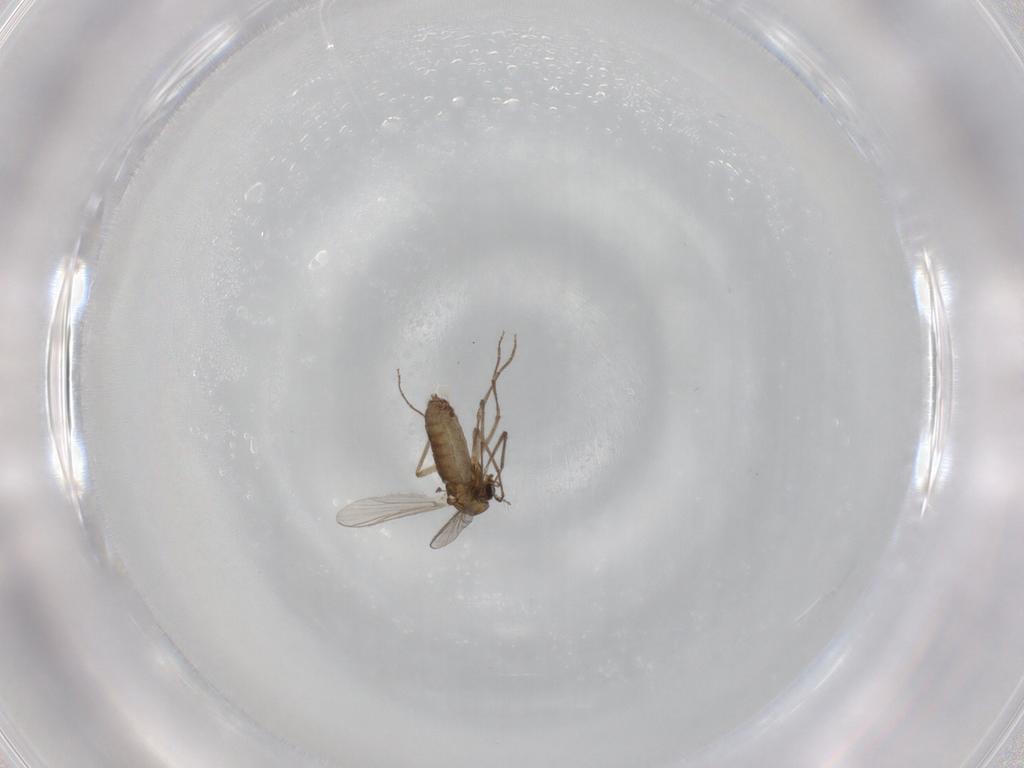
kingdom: Animalia
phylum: Arthropoda
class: Insecta
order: Diptera
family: Chironomidae
